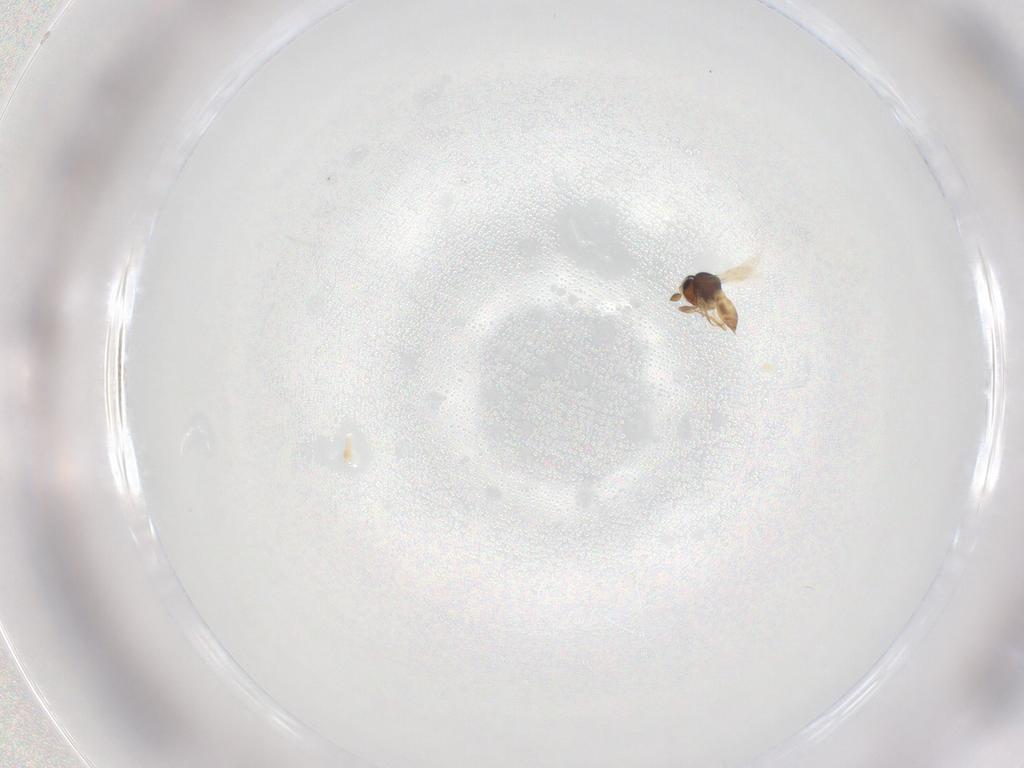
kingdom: Animalia
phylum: Arthropoda
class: Insecta
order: Hymenoptera
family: Scelionidae
